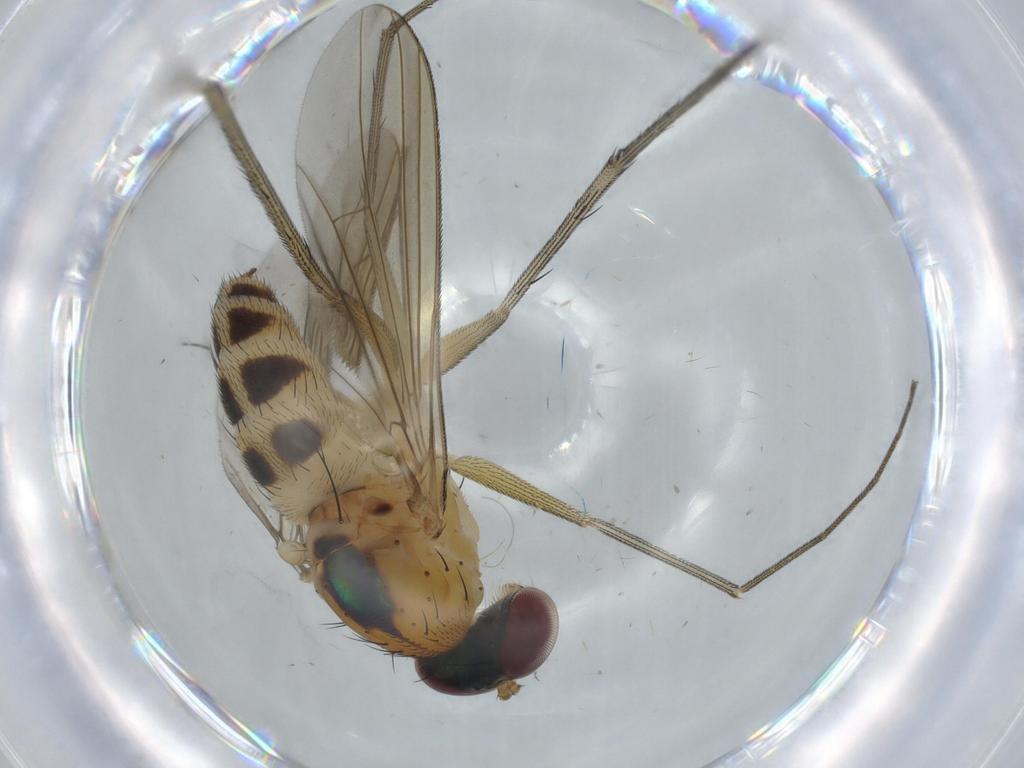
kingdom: Animalia
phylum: Arthropoda
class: Insecta
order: Diptera
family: Dolichopodidae
